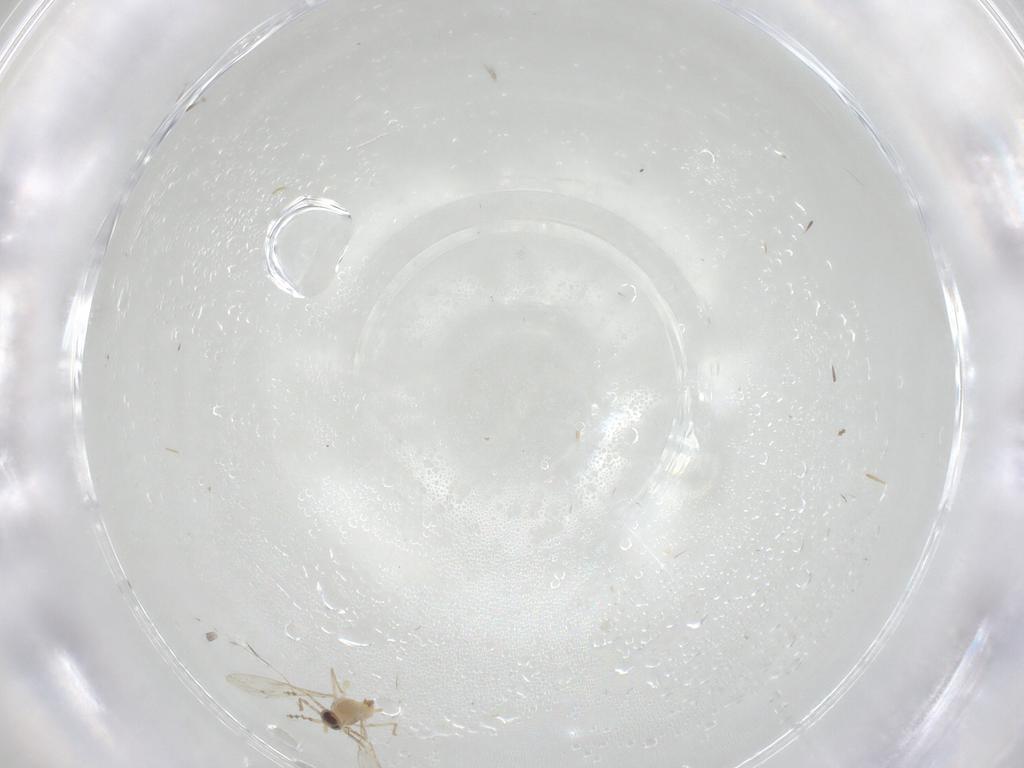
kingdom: Animalia
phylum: Arthropoda
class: Insecta
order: Diptera
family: Cecidomyiidae
